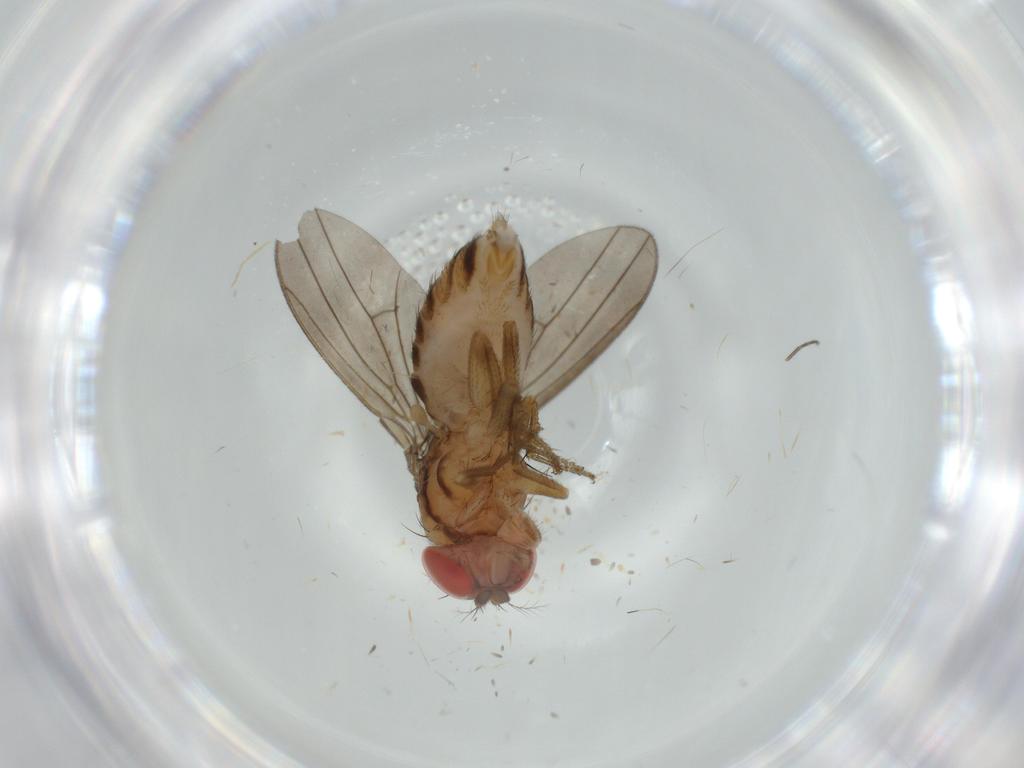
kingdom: Animalia
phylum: Arthropoda
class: Insecta
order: Diptera
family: Drosophilidae
